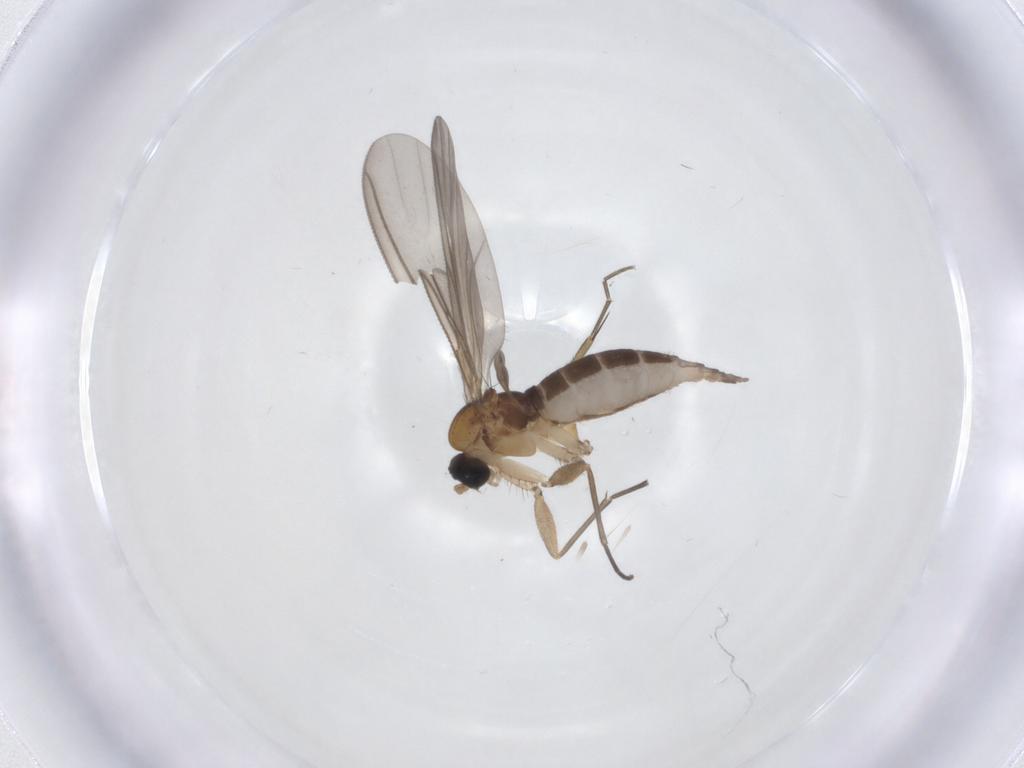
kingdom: Animalia
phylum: Arthropoda
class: Insecta
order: Diptera
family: Sciaridae
